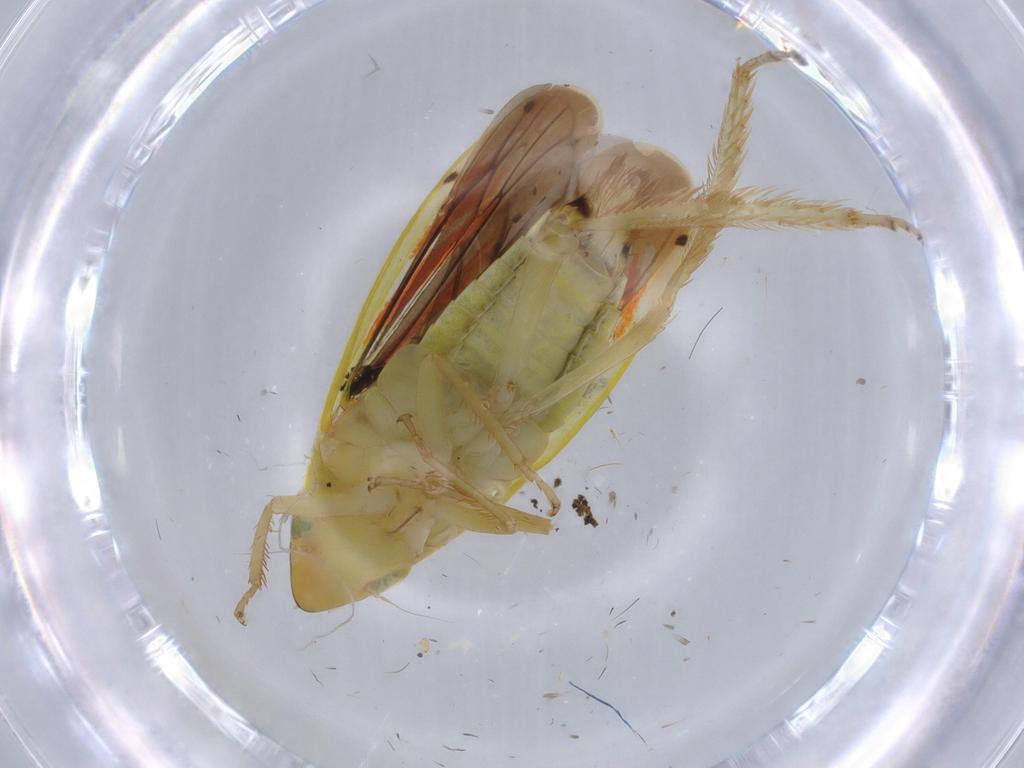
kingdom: Animalia
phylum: Arthropoda
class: Insecta
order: Hemiptera
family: Cicadellidae
